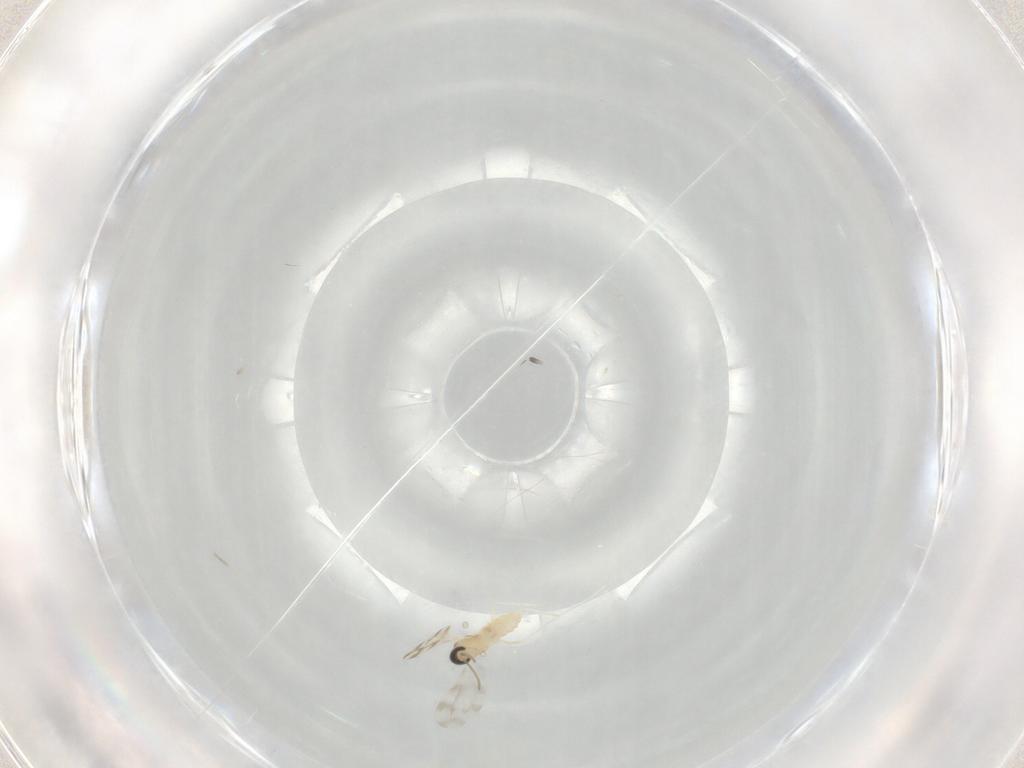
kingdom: Animalia
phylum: Arthropoda
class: Insecta
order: Diptera
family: Cecidomyiidae
